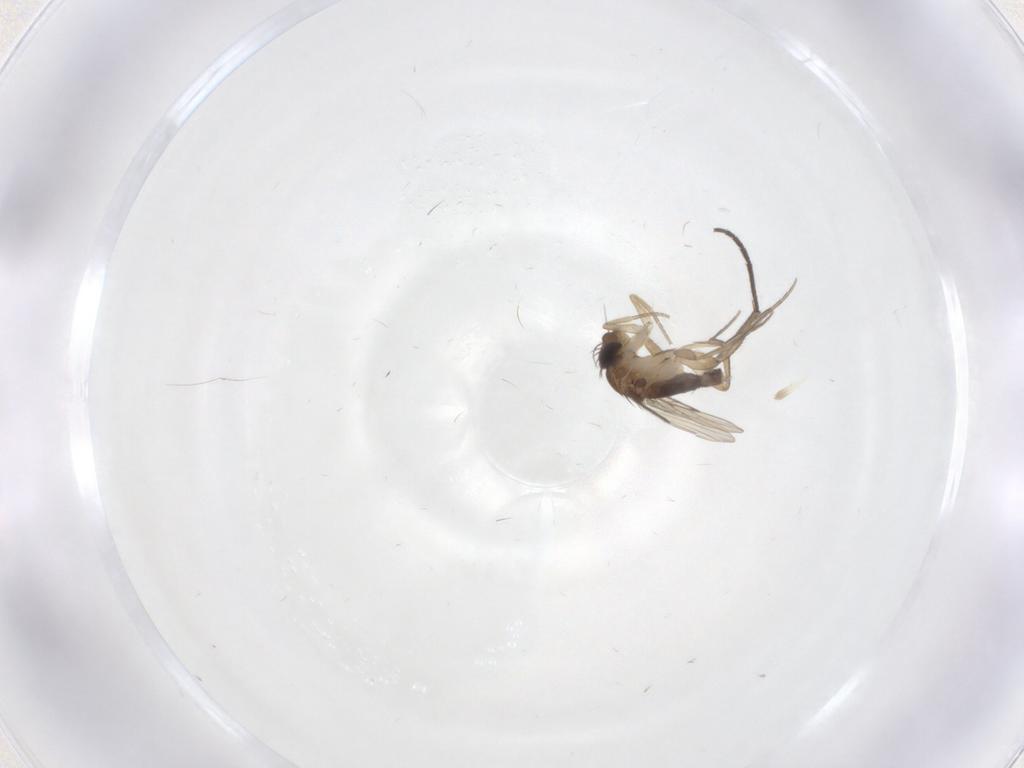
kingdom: Animalia
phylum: Arthropoda
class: Insecta
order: Diptera
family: Phoridae
